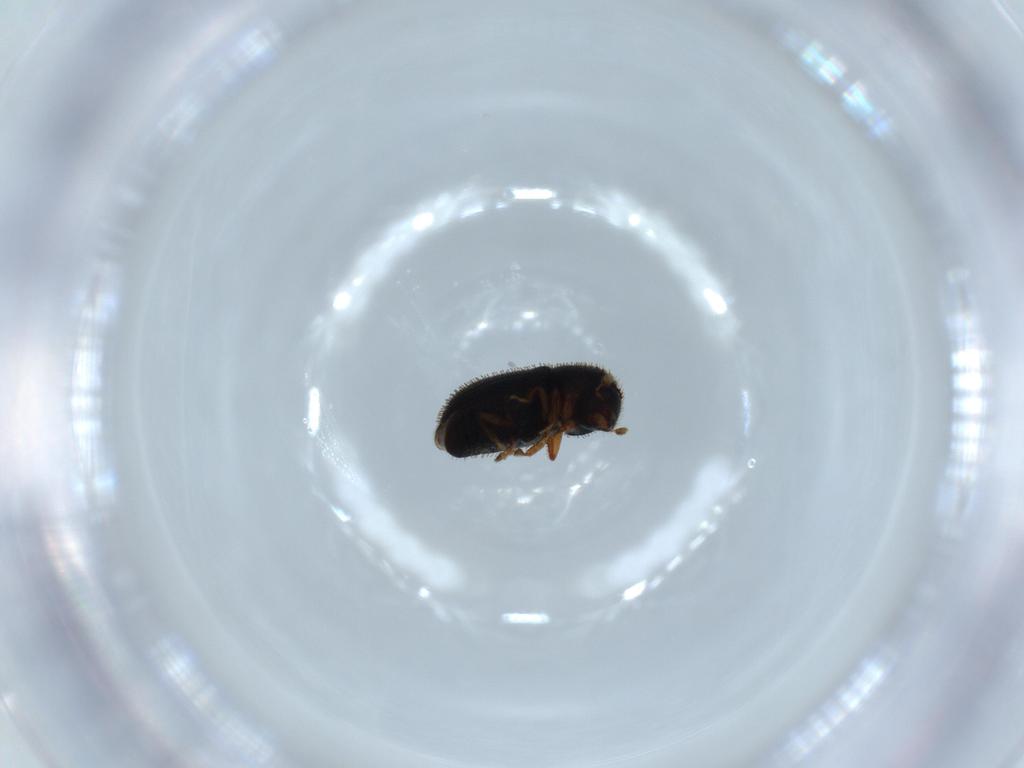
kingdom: Animalia
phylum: Arthropoda
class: Insecta
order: Coleoptera
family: Curculionidae
